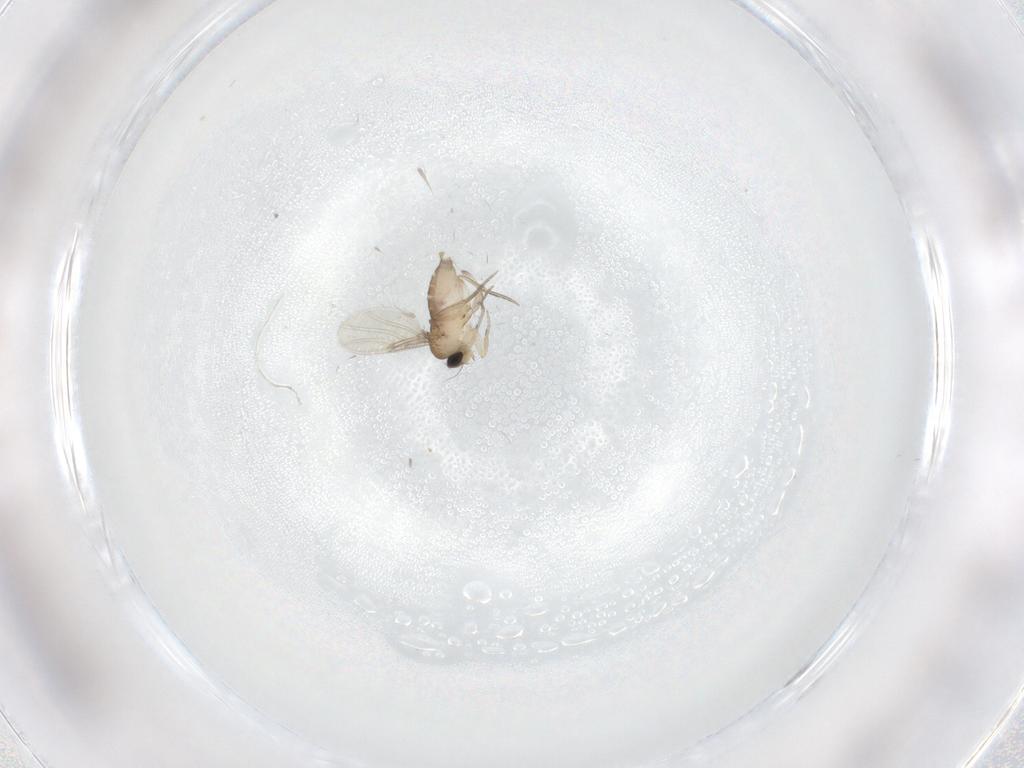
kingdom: Animalia
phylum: Arthropoda
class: Insecta
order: Diptera
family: Phoridae
